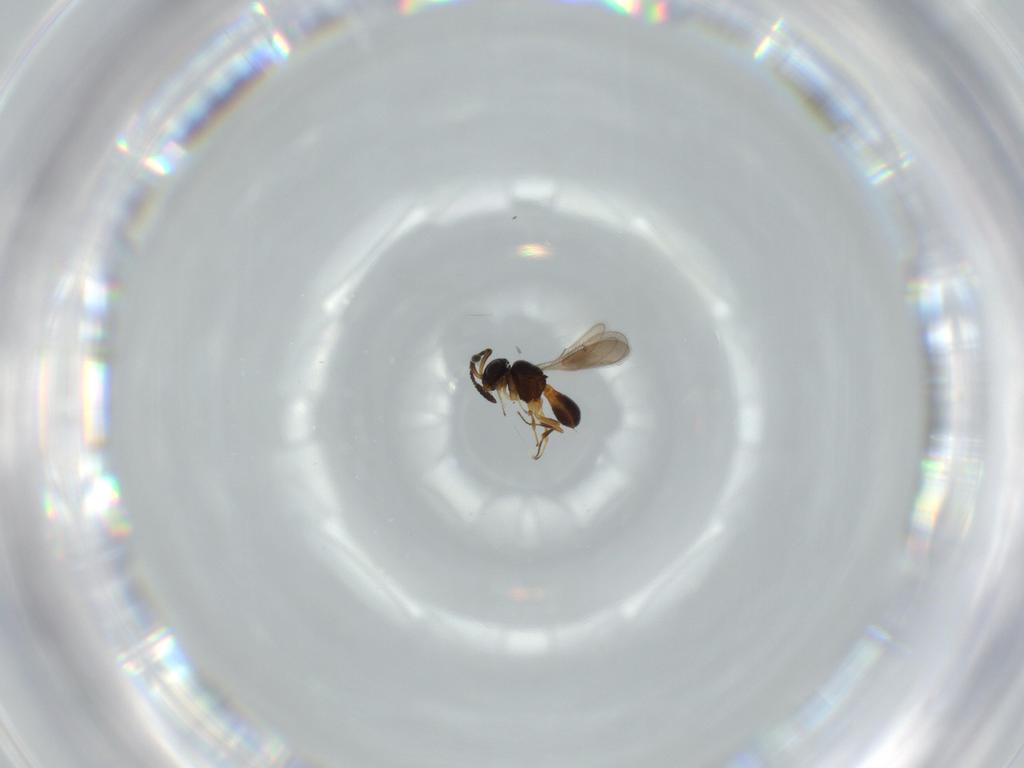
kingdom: Animalia
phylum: Arthropoda
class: Insecta
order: Hymenoptera
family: Scelionidae
